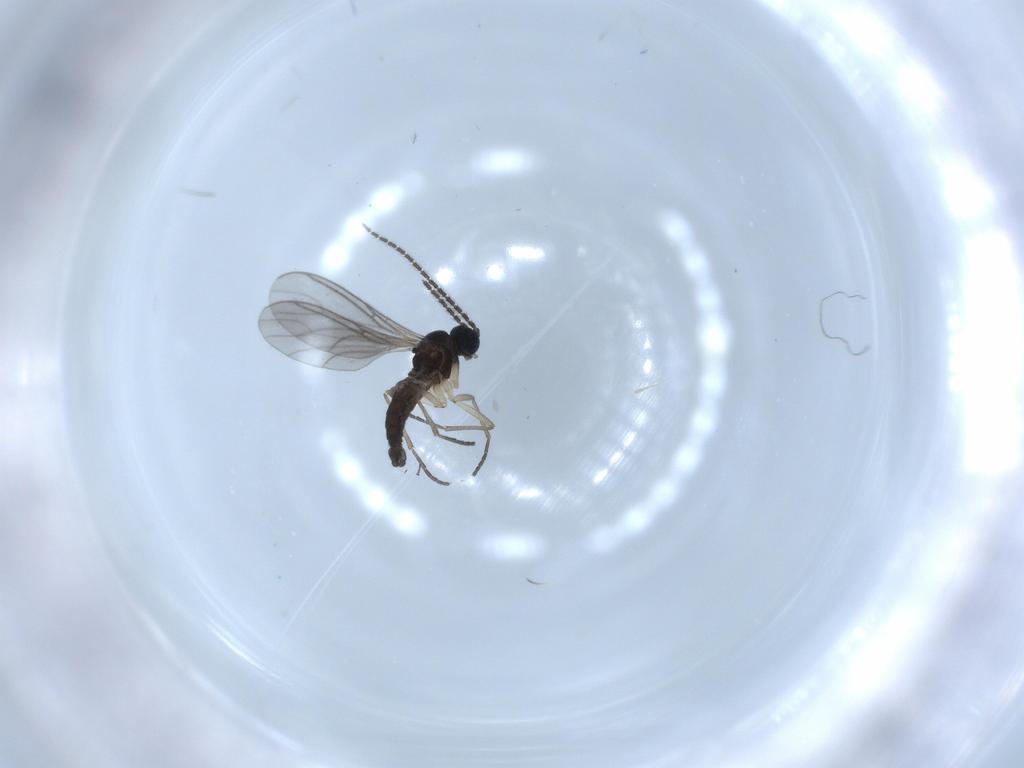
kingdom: Animalia
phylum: Arthropoda
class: Insecta
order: Diptera
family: Sciaridae
